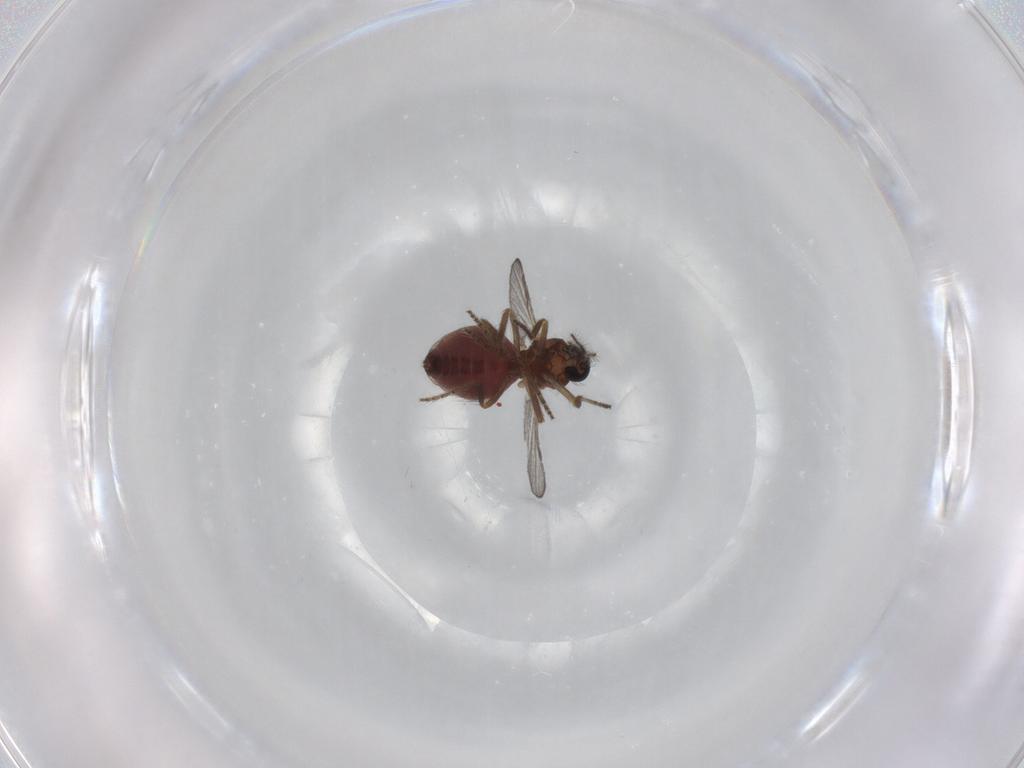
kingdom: Animalia
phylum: Arthropoda
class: Insecta
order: Diptera
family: Ceratopogonidae
